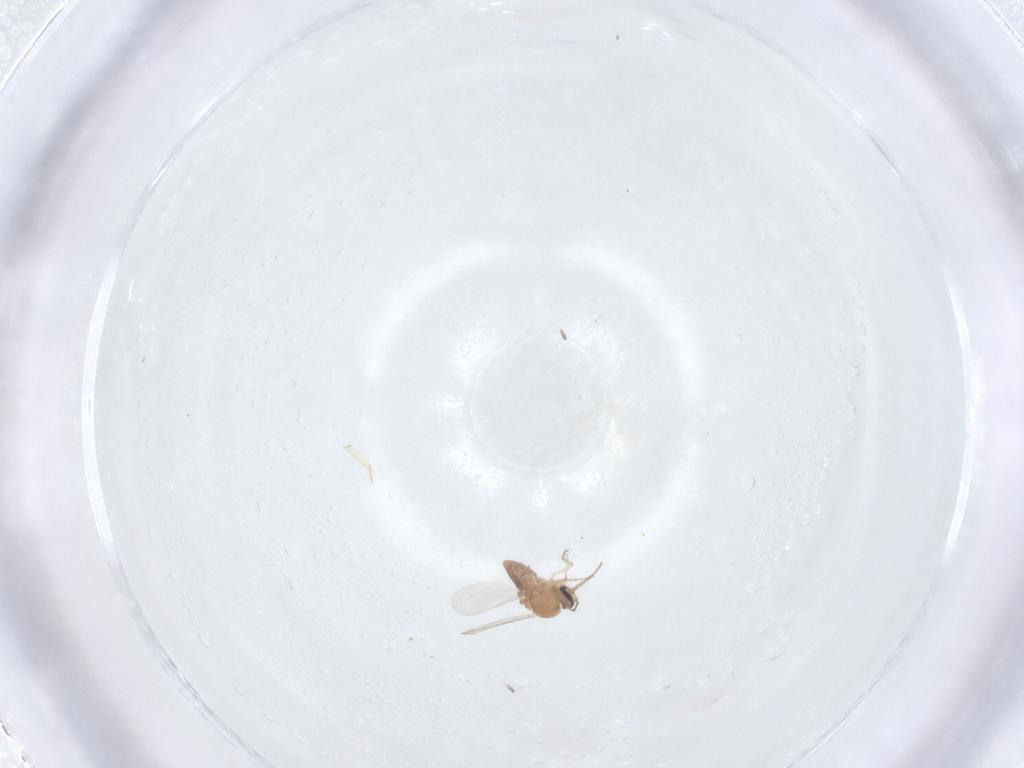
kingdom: Animalia
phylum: Arthropoda
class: Insecta
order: Diptera
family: Ceratopogonidae
